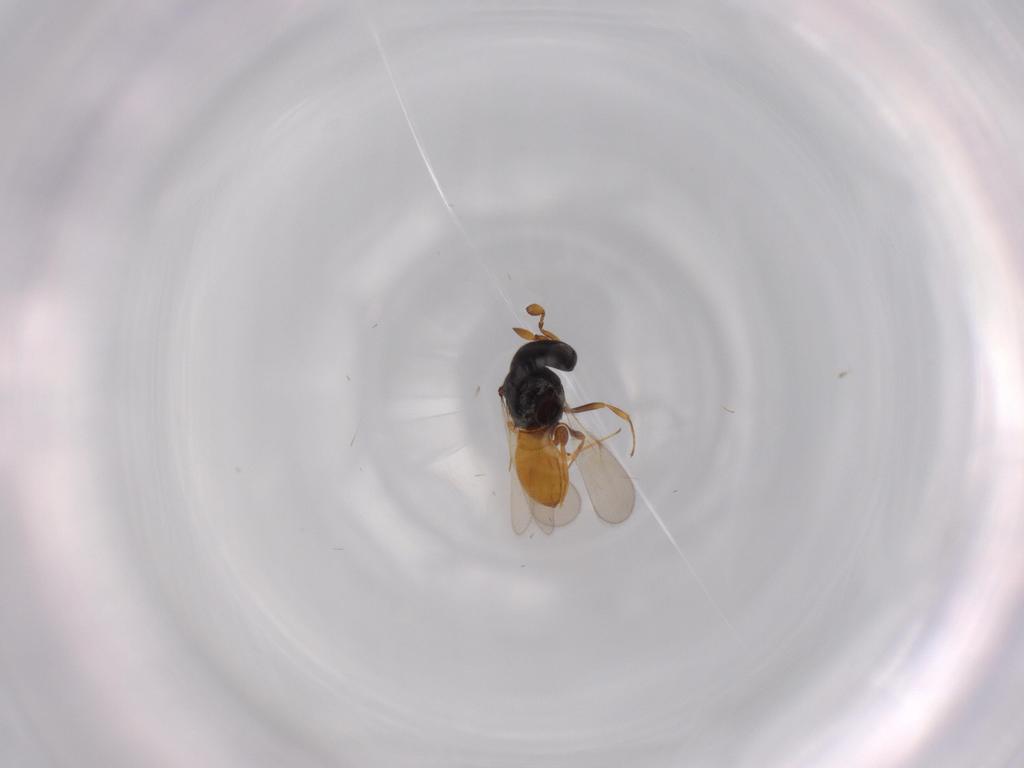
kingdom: Animalia
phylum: Arthropoda
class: Insecta
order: Hymenoptera
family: Scelionidae
